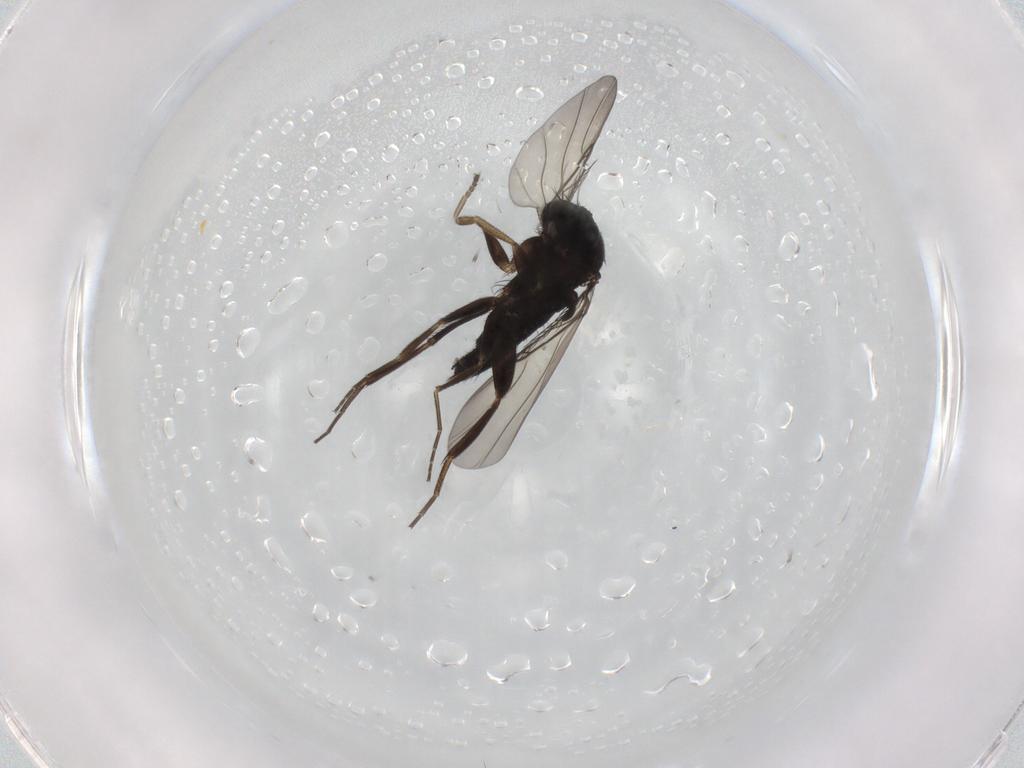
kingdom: Animalia
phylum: Arthropoda
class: Insecta
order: Diptera
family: Phoridae
